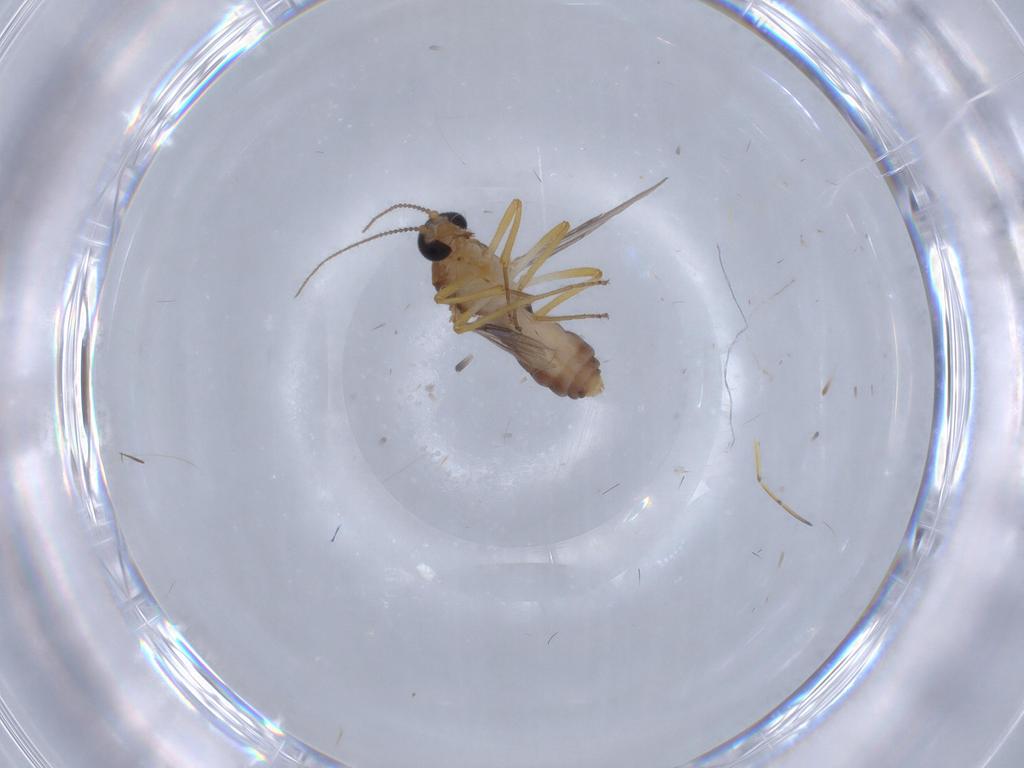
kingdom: Animalia
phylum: Arthropoda
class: Insecta
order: Diptera
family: Ceratopogonidae
